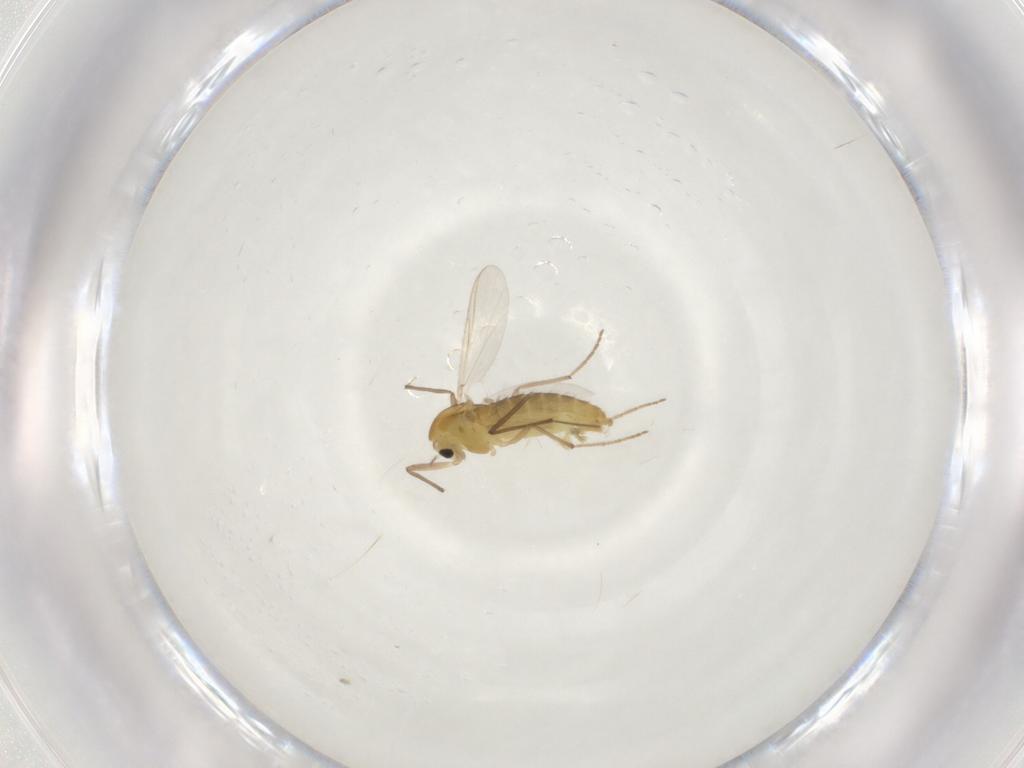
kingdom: Animalia
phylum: Arthropoda
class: Insecta
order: Diptera
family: Chironomidae
